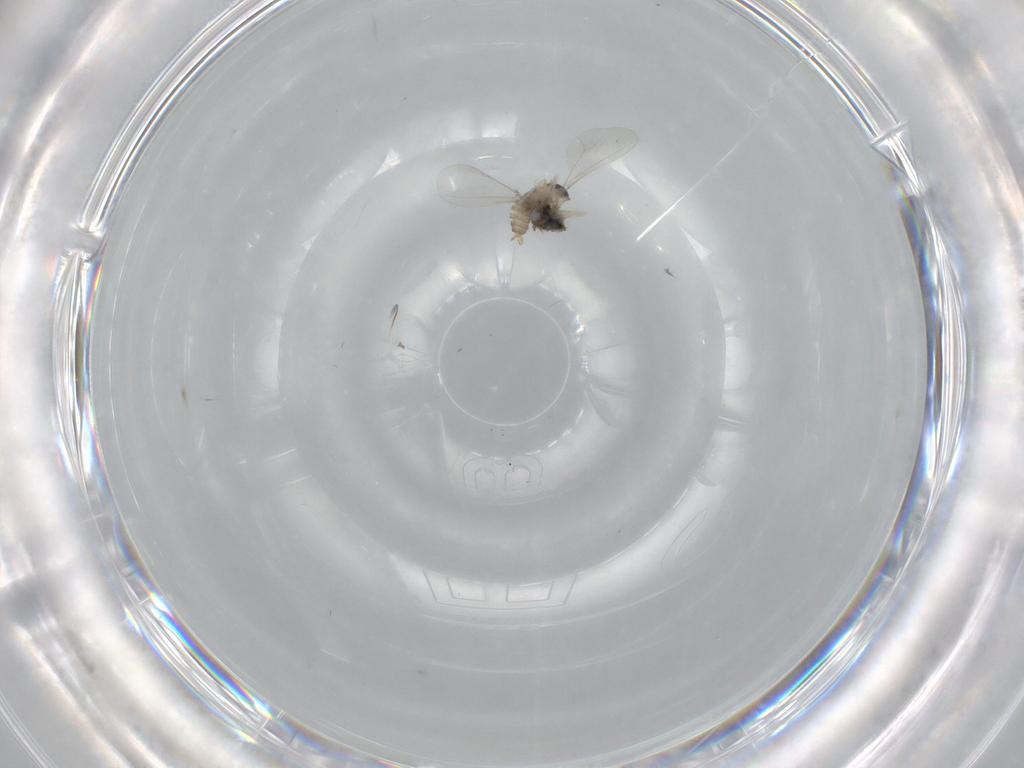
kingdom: Animalia
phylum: Arthropoda
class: Insecta
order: Diptera
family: Cecidomyiidae
